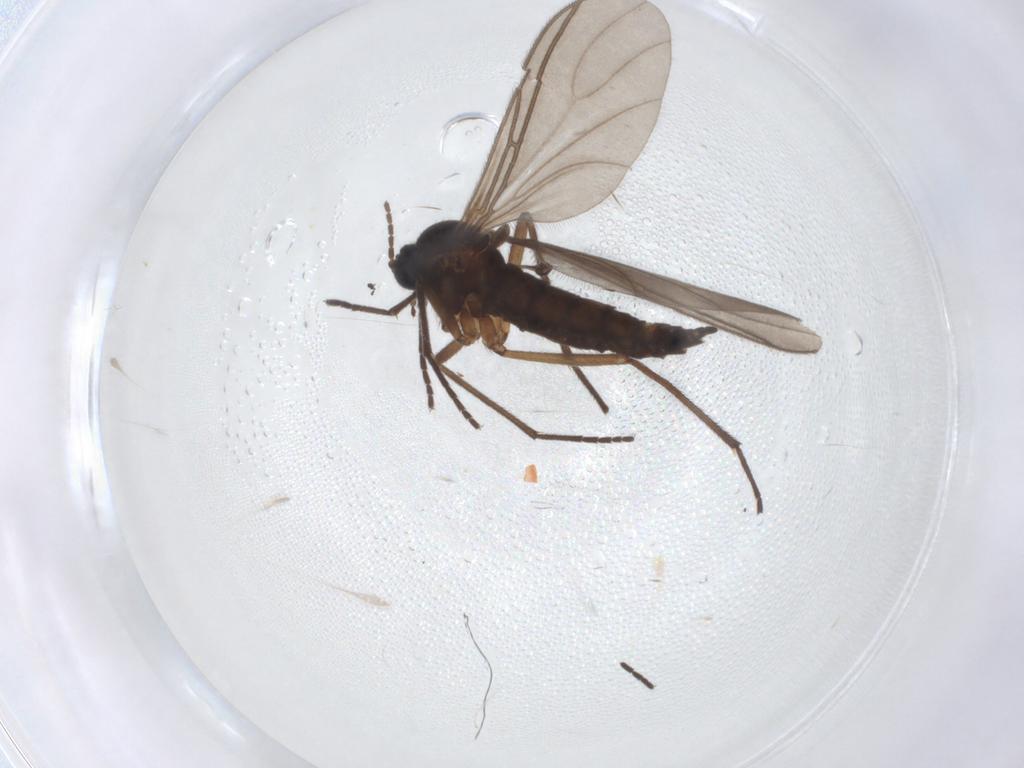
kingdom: Animalia
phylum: Arthropoda
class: Insecta
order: Diptera
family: Cecidomyiidae
